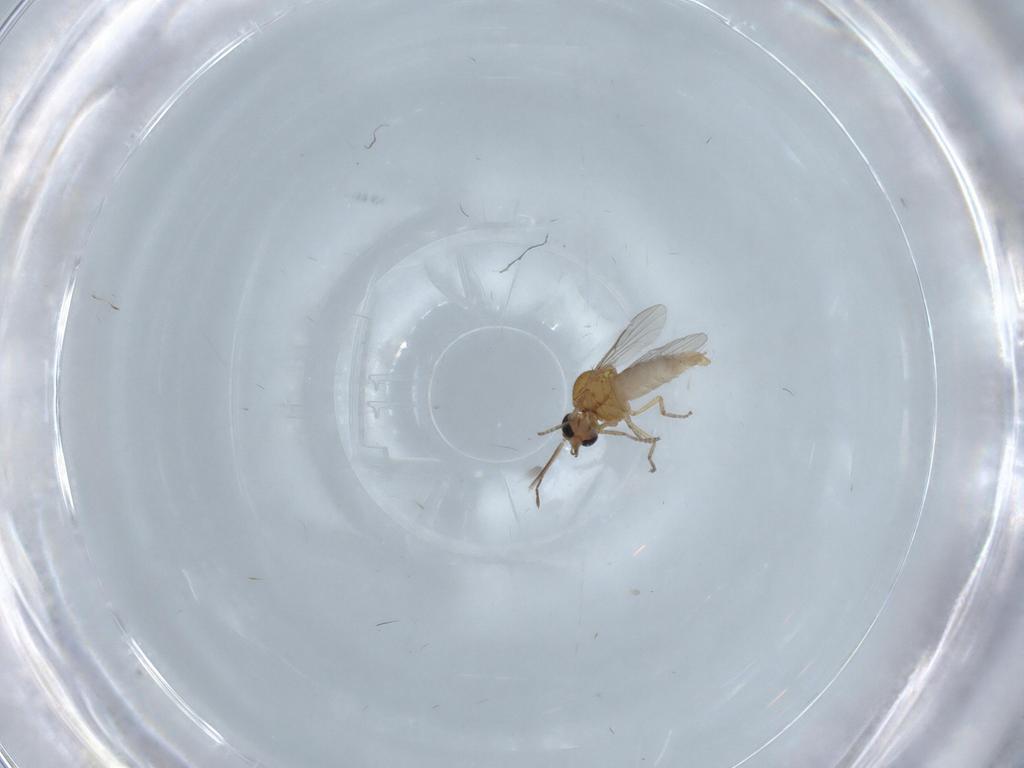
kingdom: Animalia
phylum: Arthropoda
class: Insecta
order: Diptera
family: Ceratopogonidae
